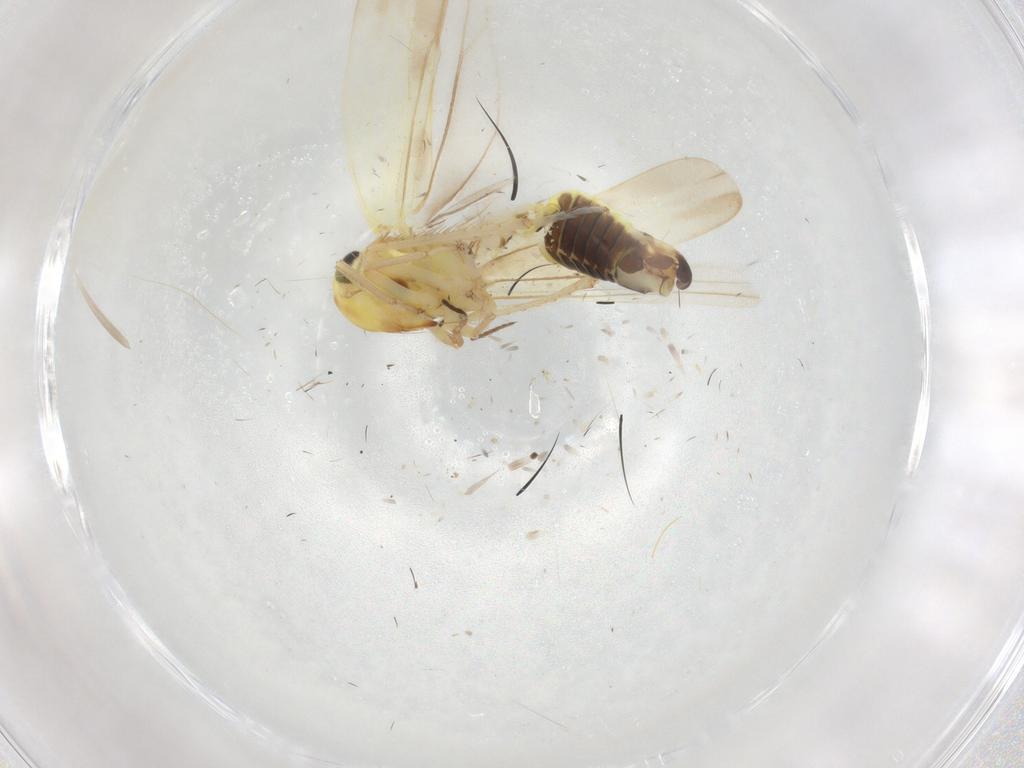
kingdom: Animalia
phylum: Arthropoda
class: Insecta
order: Hemiptera
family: Cicadellidae
